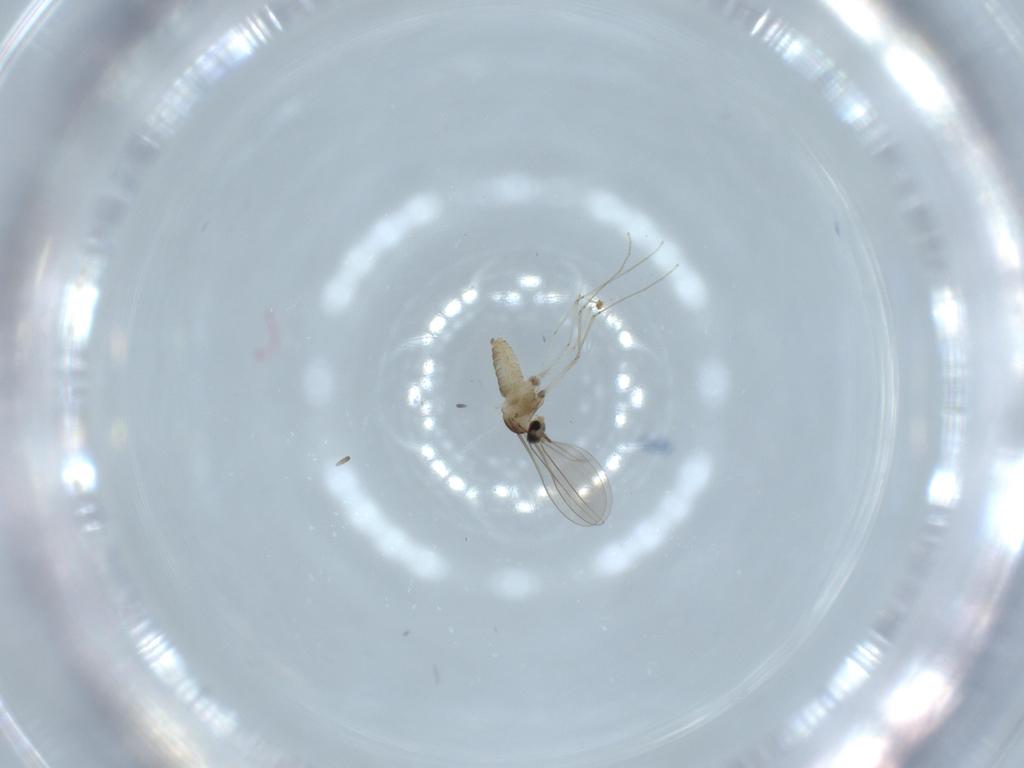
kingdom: Animalia
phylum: Arthropoda
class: Insecta
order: Diptera
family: Cecidomyiidae
